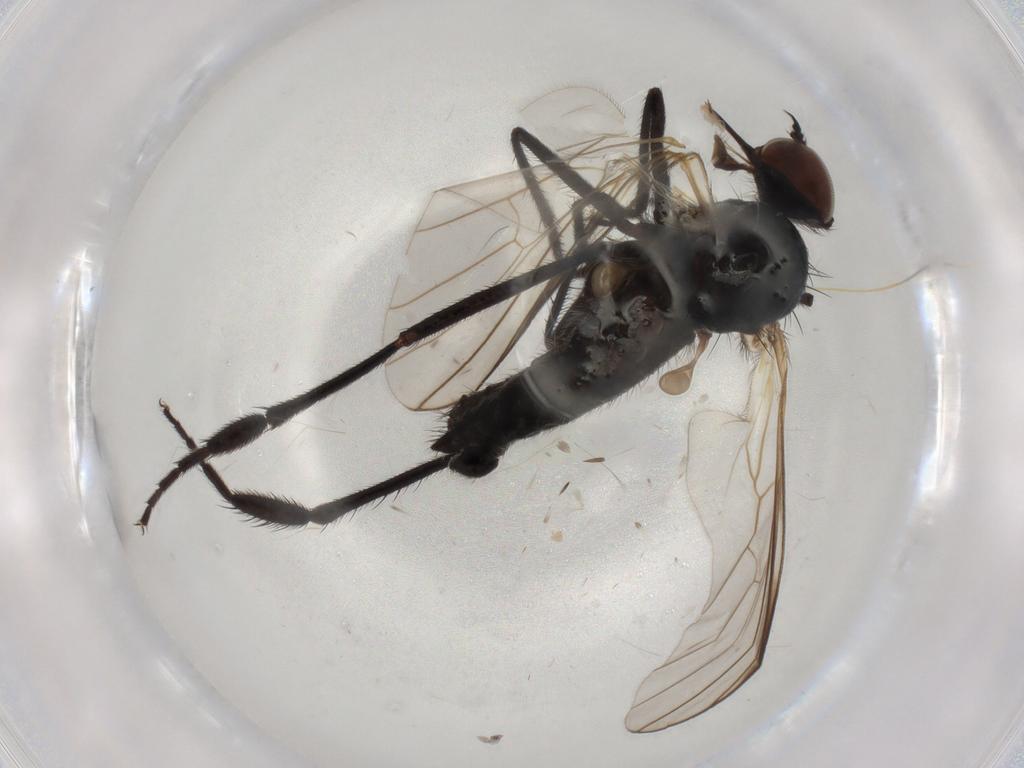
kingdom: Animalia
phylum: Arthropoda
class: Insecta
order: Diptera
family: Empididae
